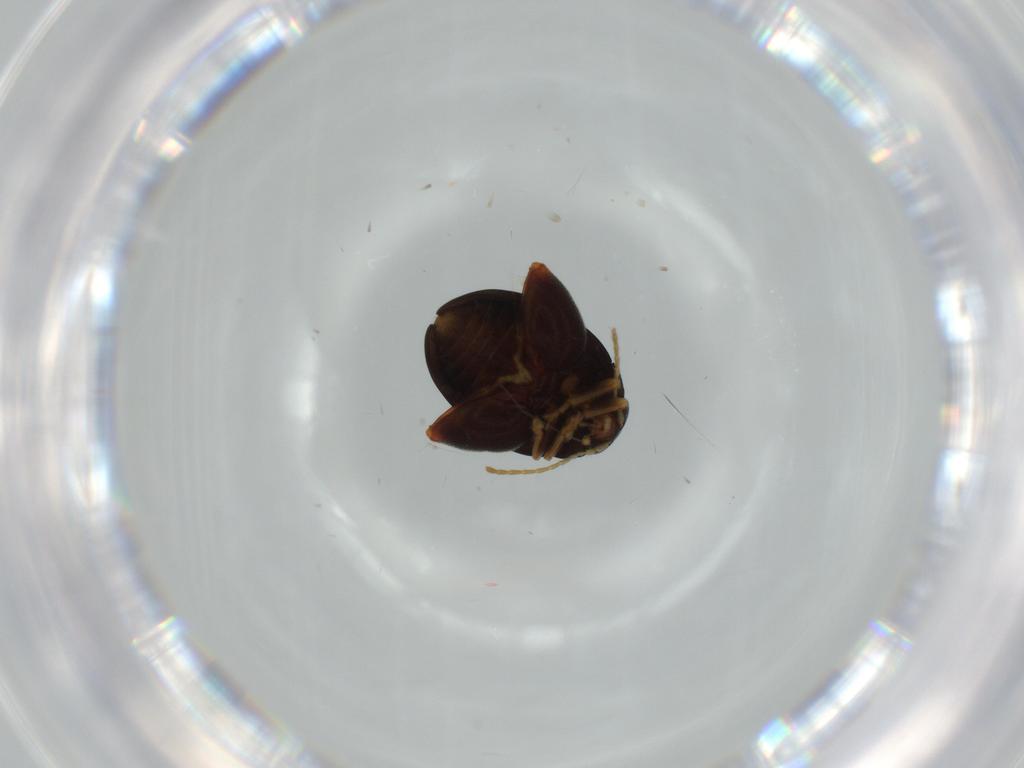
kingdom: Animalia
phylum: Arthropoda
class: Insecta
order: Coleoptera
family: Chrysomelidae
